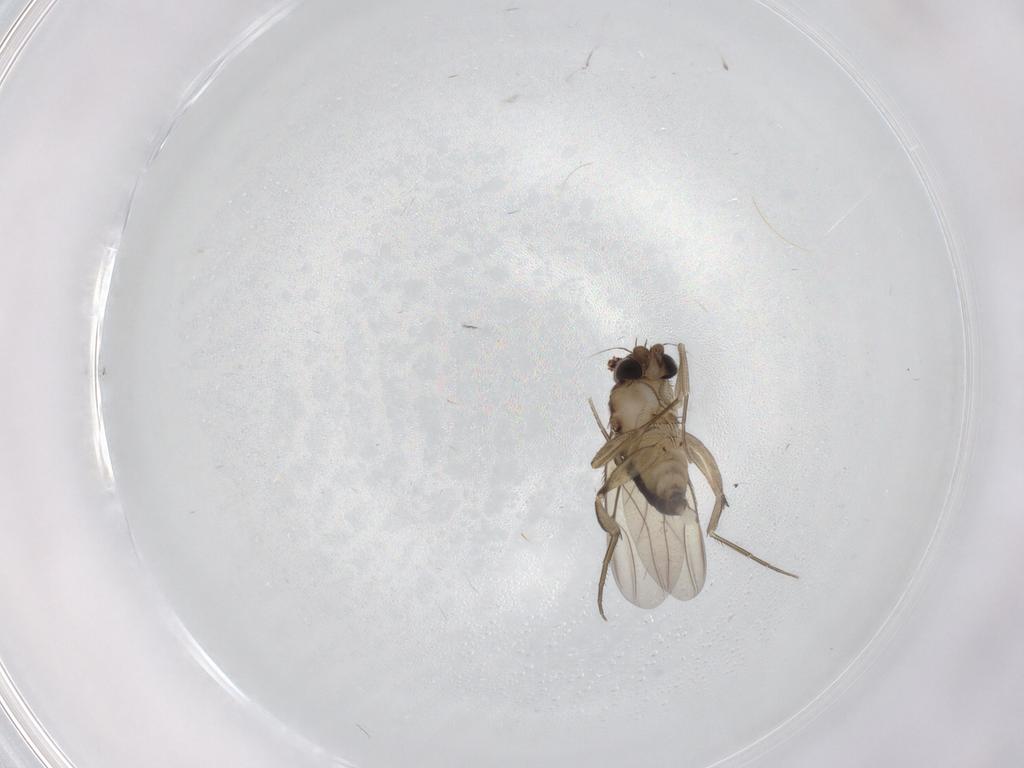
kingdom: Animalia
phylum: Arthropoda
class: Insecta
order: Diptera
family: Phoridae
